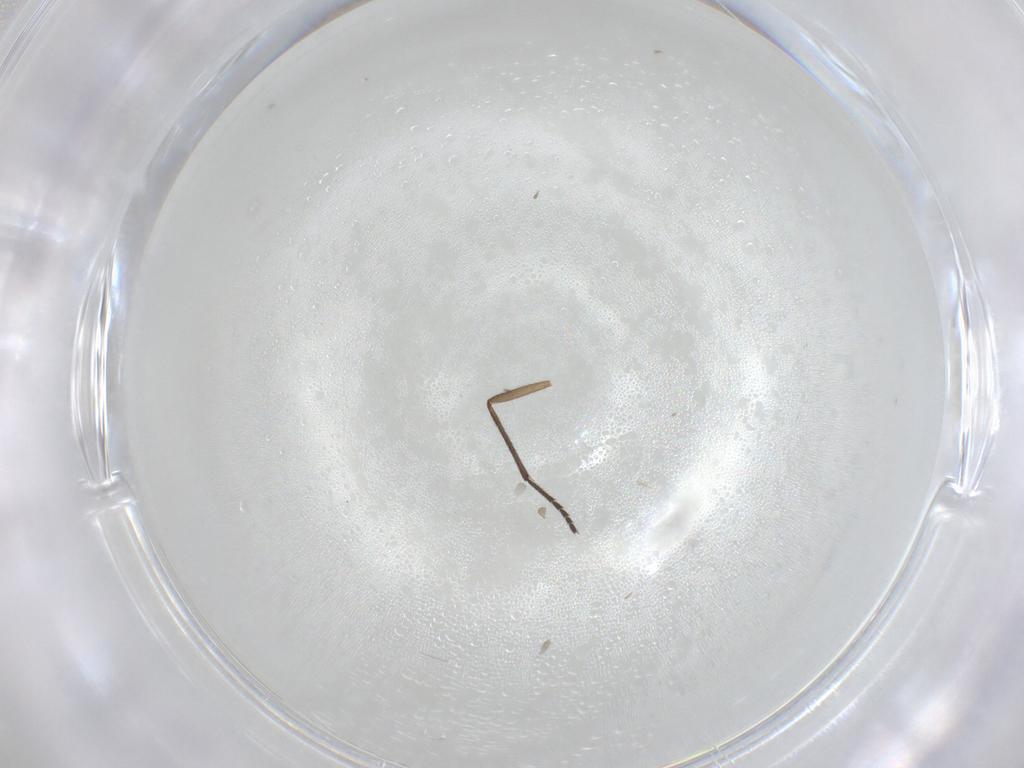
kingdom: Animalia
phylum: Arthropoda
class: Insecta
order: Diptera
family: Chironomidae
